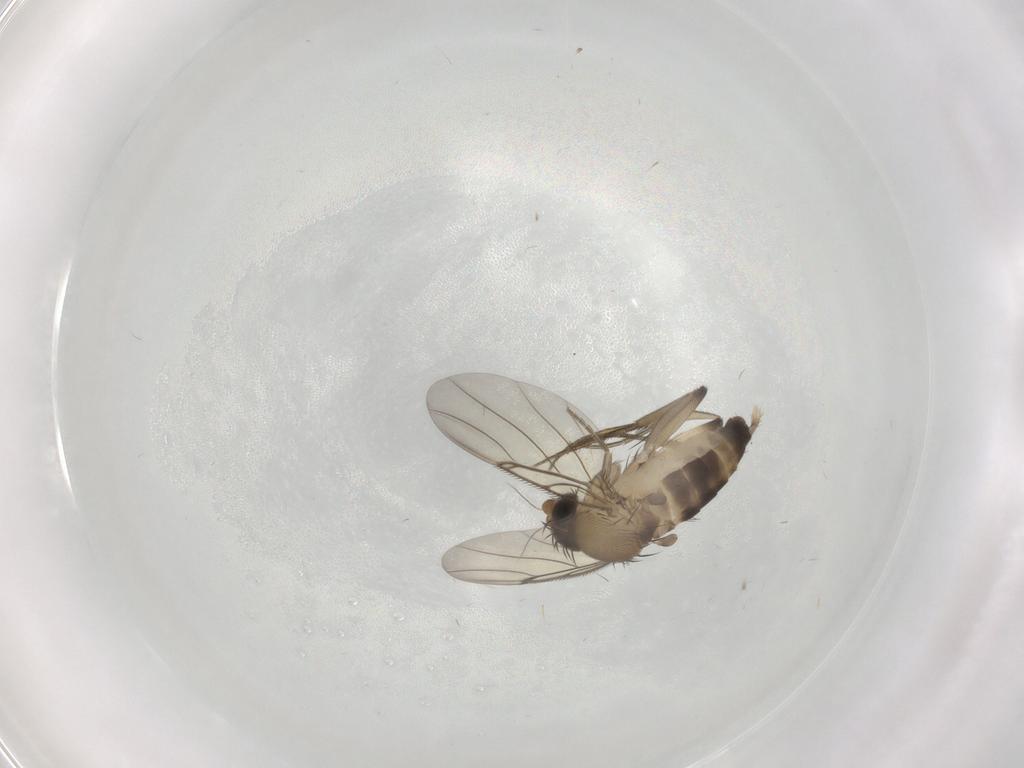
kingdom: Animalia
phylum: Arthropoda
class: Insecta
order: Diptera
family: Phoridae
